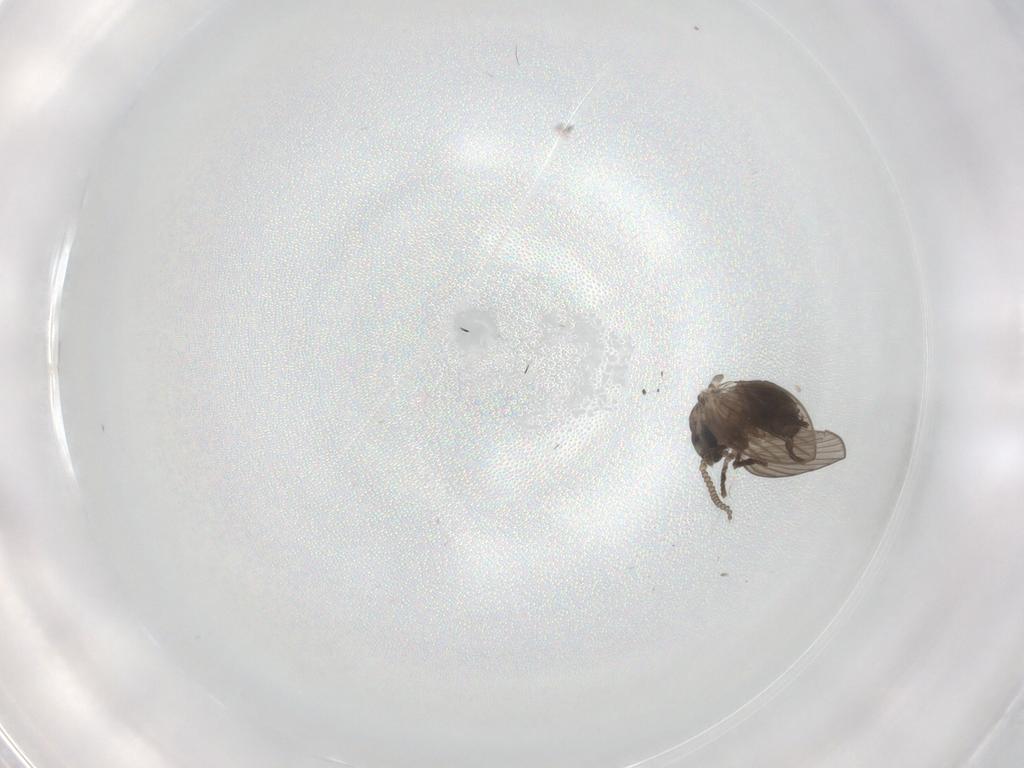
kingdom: Animalia
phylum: Arthropoda
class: Insecta
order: Diptera
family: Psychodidae
